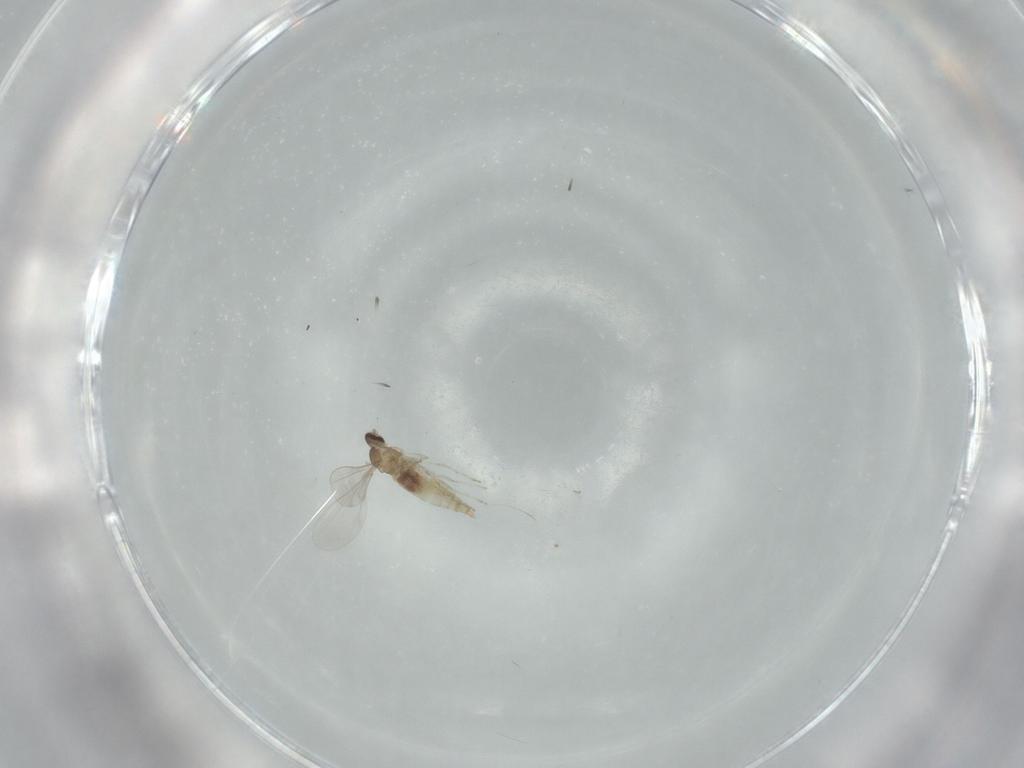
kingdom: Animalia
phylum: Arthropoda
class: Insecta
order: Diptera
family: Cecidomyiidae
